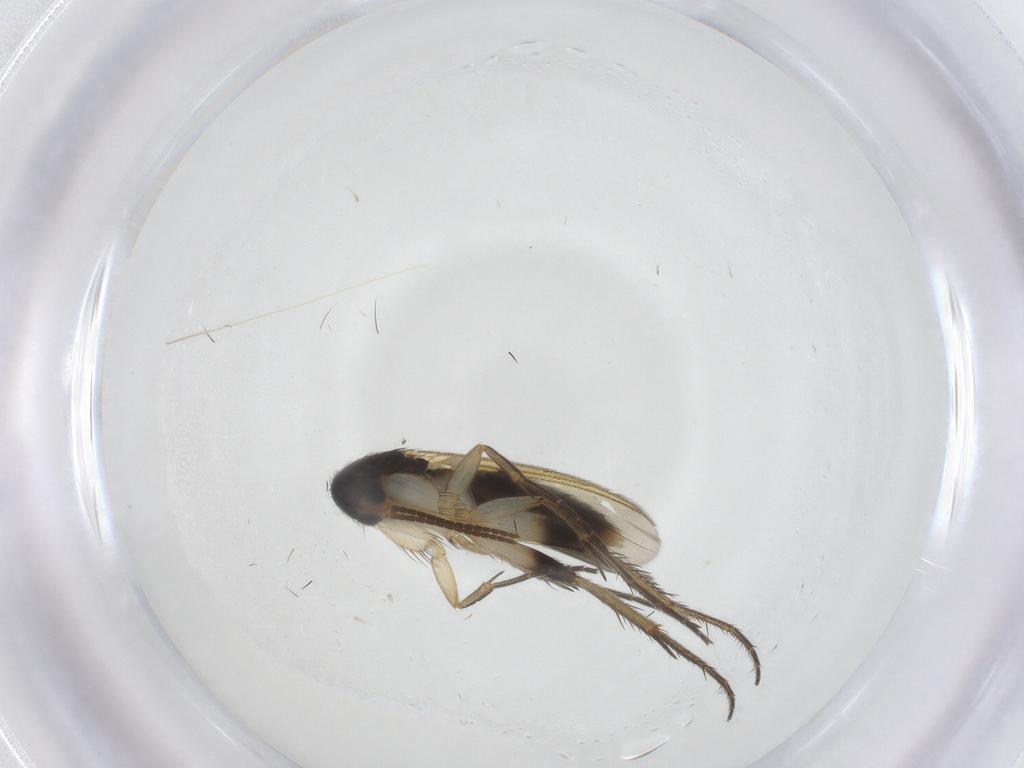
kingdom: Animalia
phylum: Arthropoda
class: Insecta
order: Diptera
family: Mycetophilidae
